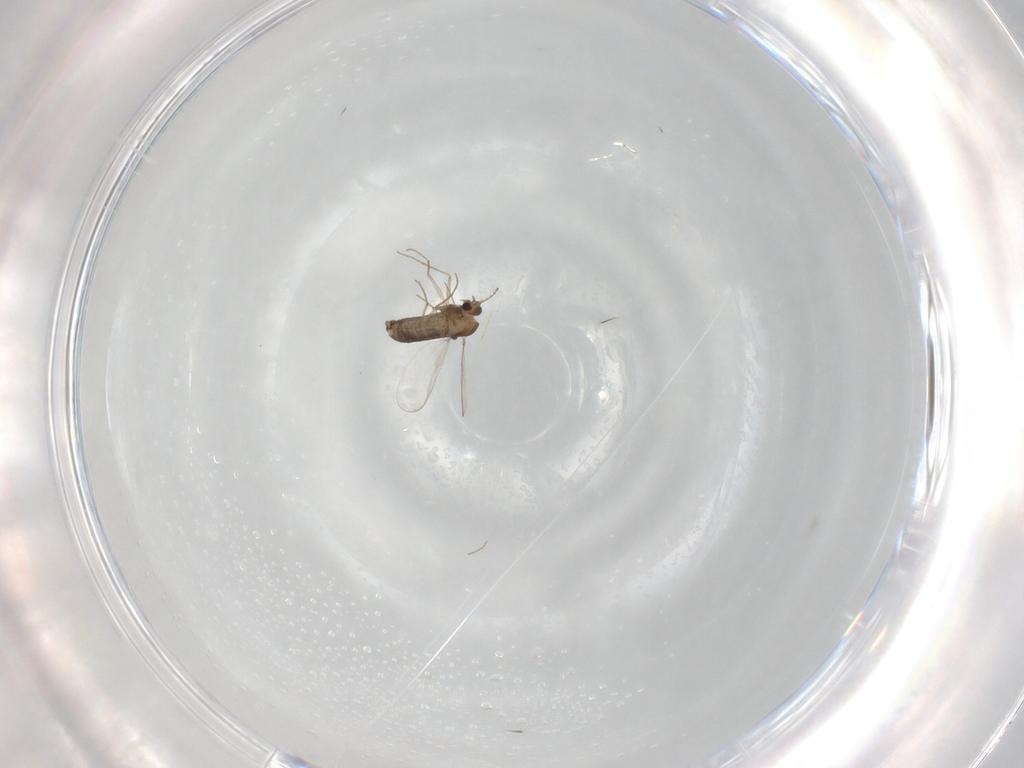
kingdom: Animalia
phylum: Arthropoda
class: Insecta
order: Diptera
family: Chironomidae
